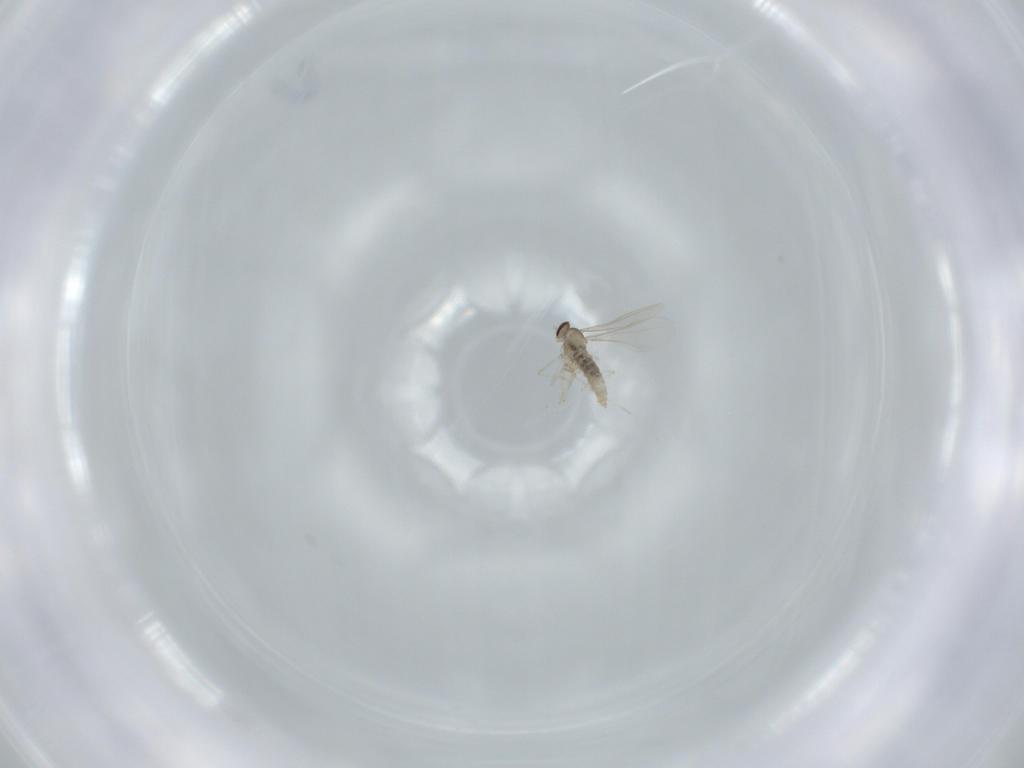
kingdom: Animalia
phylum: Arthropoda
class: Insecta
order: Diptera
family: Cecidomyiidae
